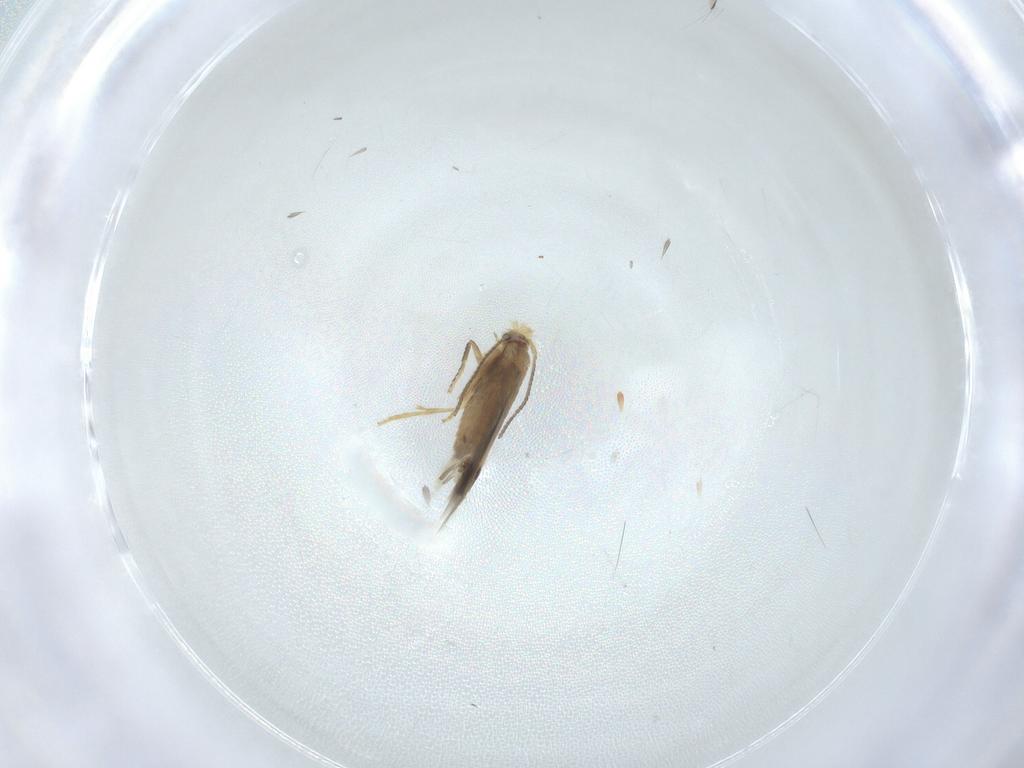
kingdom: Animalia
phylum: Arthropoda
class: Insecta
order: Lepidoptera
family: Nepticulidae
